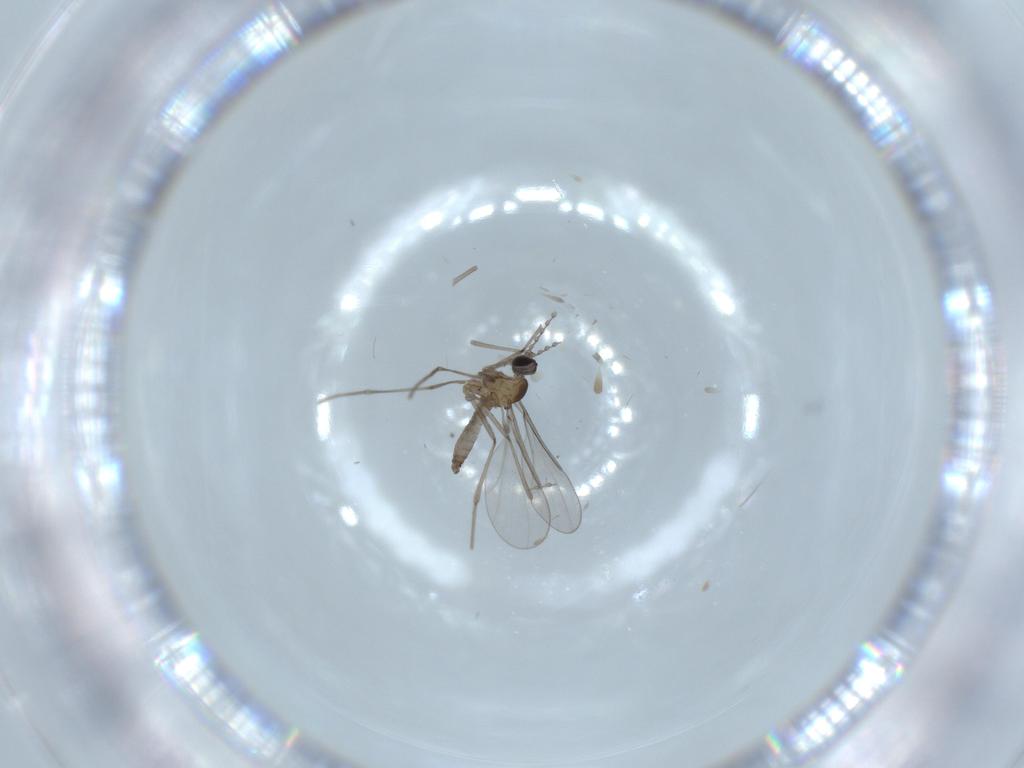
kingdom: Animalia
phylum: Arthropoda
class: Insecta
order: Diptera
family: Cecidomyiidae
